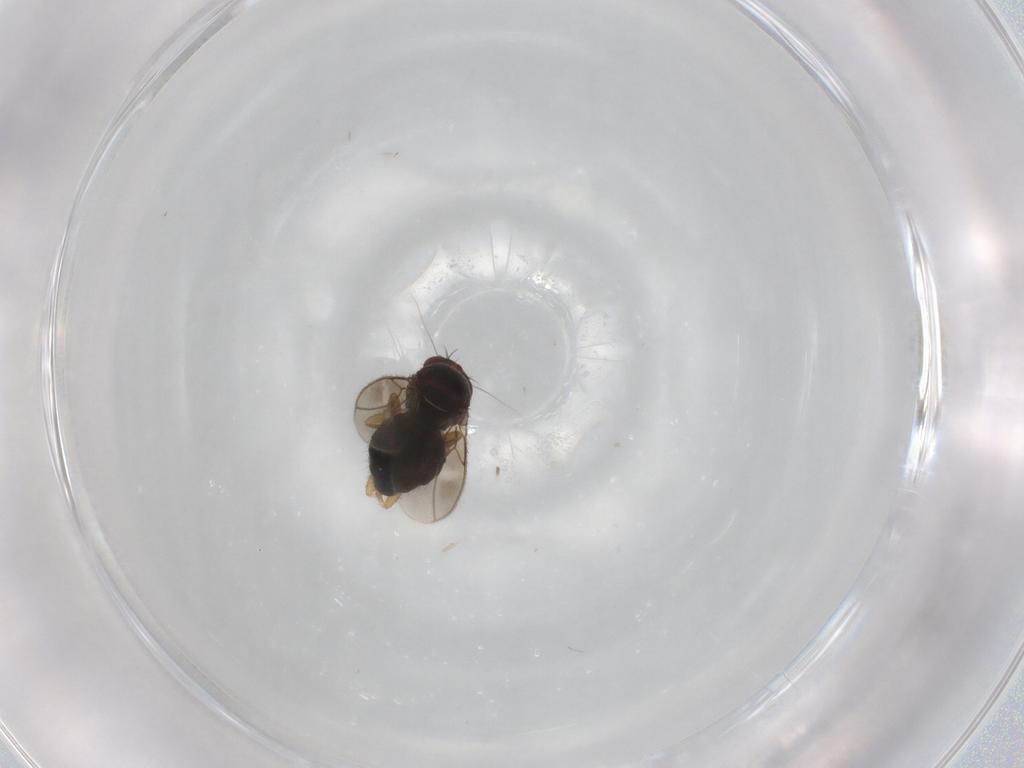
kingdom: Animalia
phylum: Arthropoda
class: Insecta
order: Diptera
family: Sphaeroceridae
